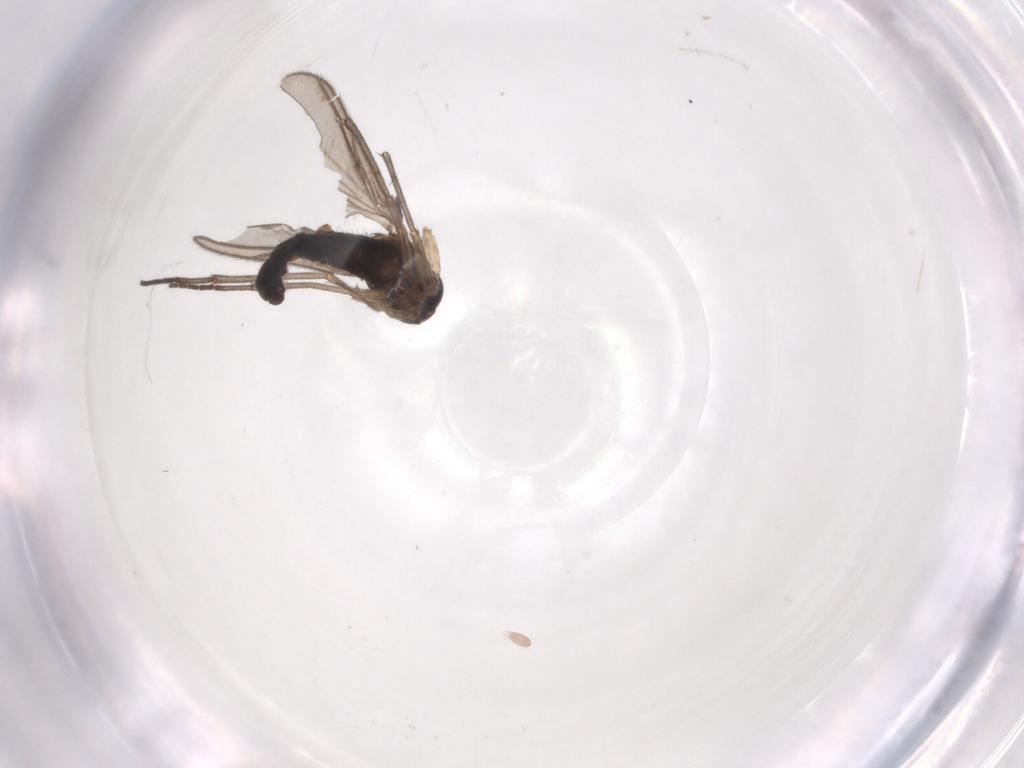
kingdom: Animalia
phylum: Arthropoda
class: Insecta
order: Diptera
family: Sciaridae
